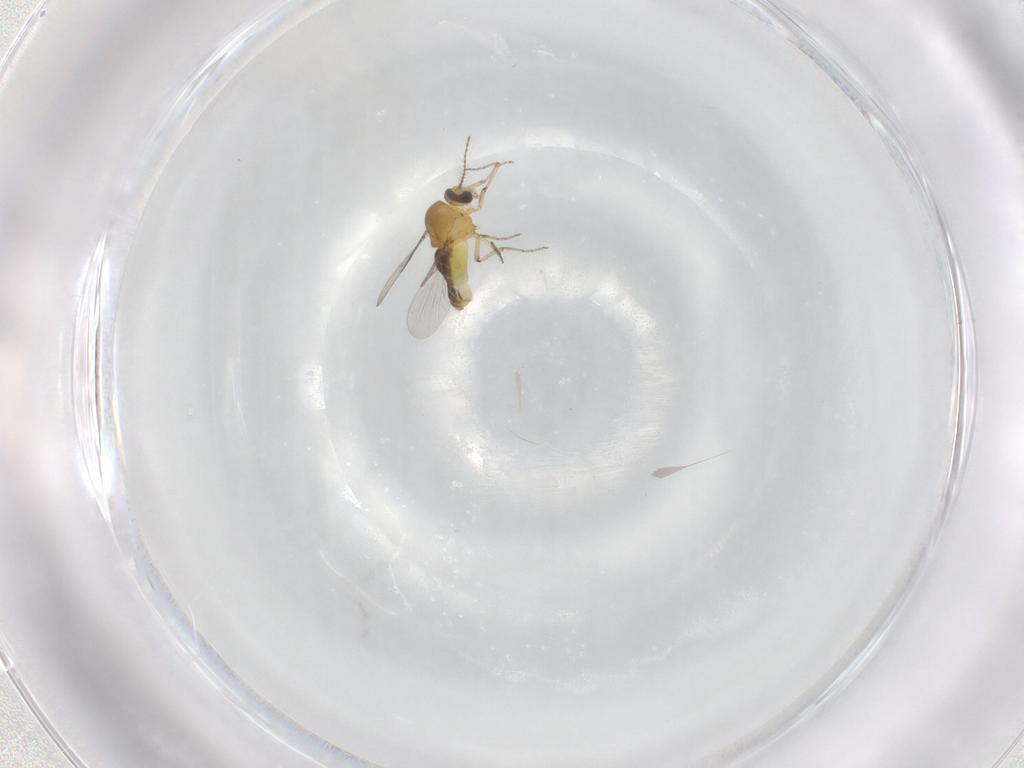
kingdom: Animalia
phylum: Arthropoda
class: Insecta
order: Diptera
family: Ceratopogonidae
